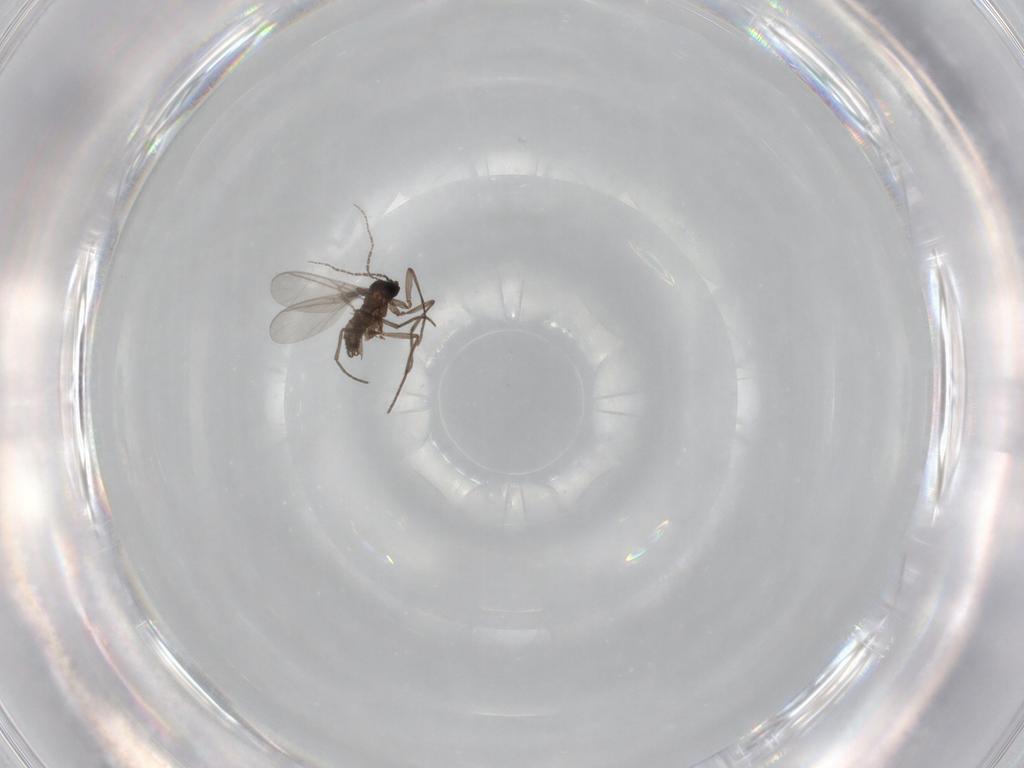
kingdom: Animalia
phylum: Arthropoda
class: Insecta
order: Diptera
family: Sciaridae
